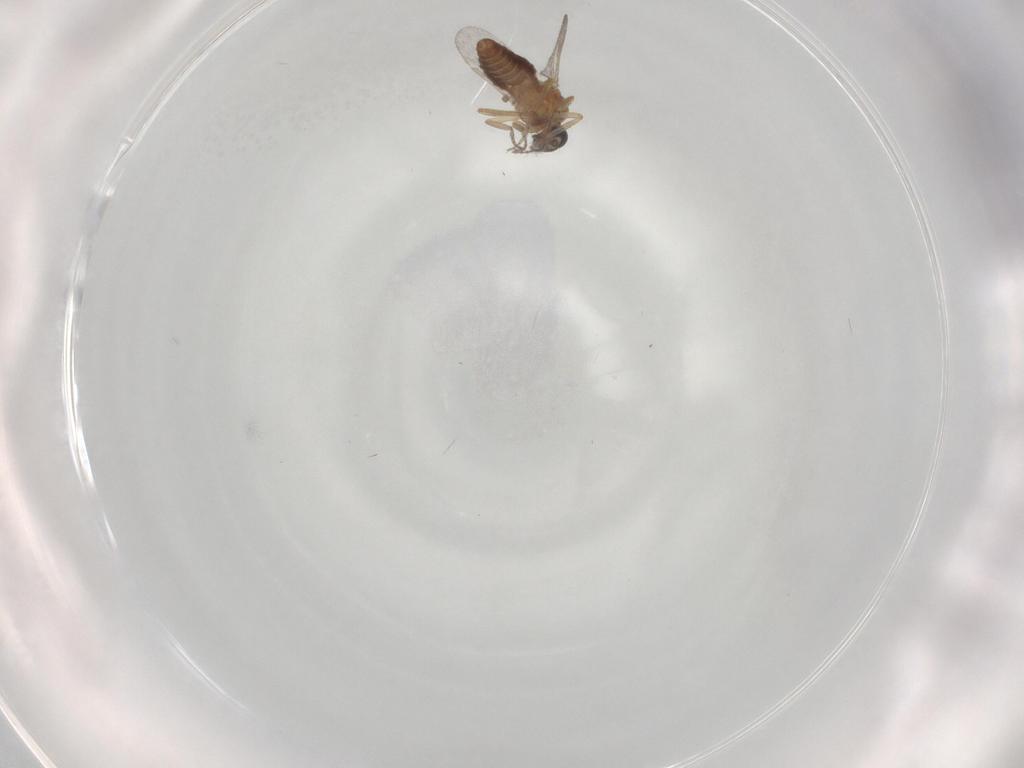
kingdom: Animalia
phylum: Arthropoda
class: Insecta
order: Diptera
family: Ceratopogonidae
